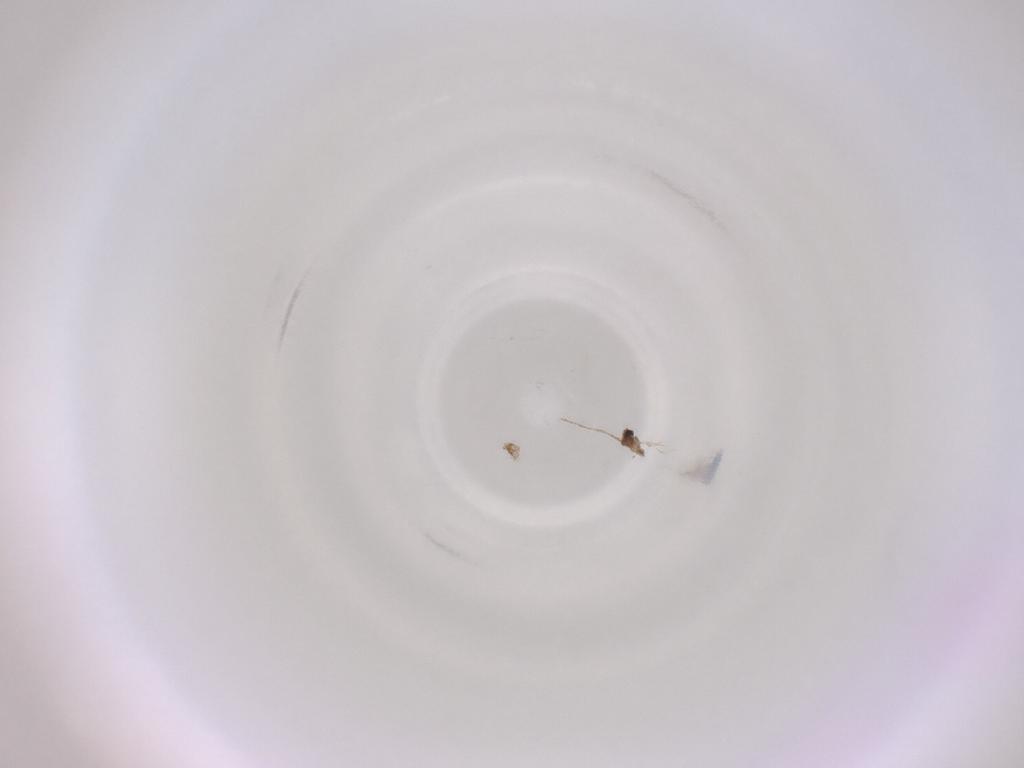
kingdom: Animalia
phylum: Arthropoda
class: Insecta
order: Diptera
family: Cecidomyiidae
